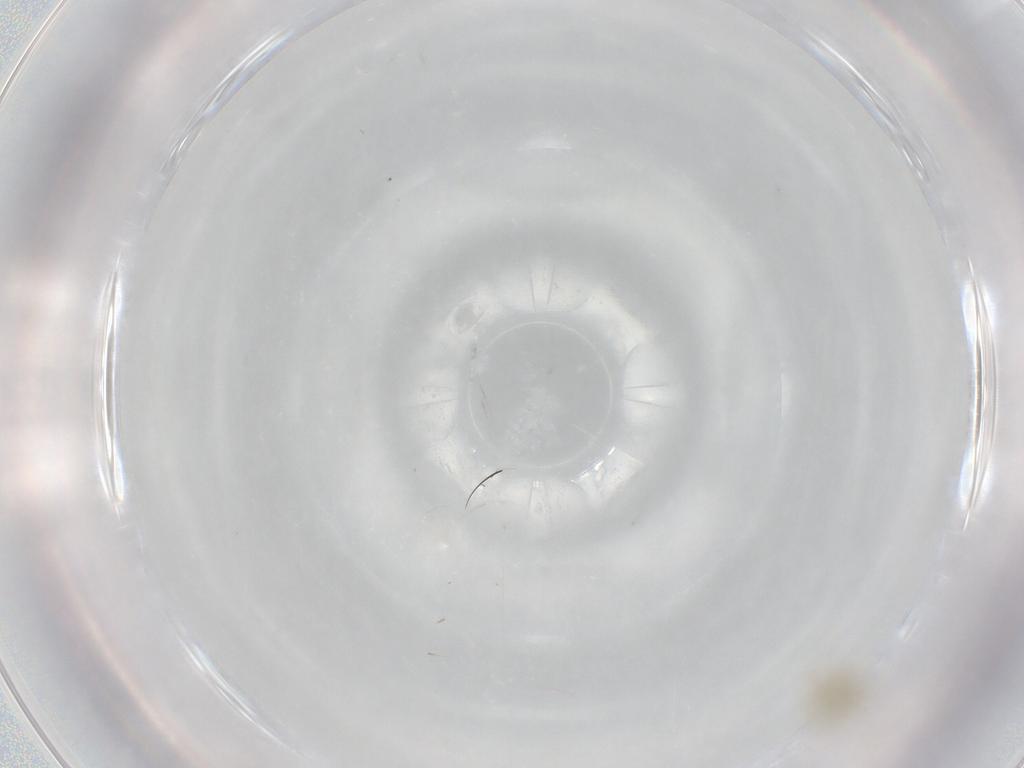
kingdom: Animalia
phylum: Arthropoda
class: Insecta
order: Diptera
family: Chironomidae
